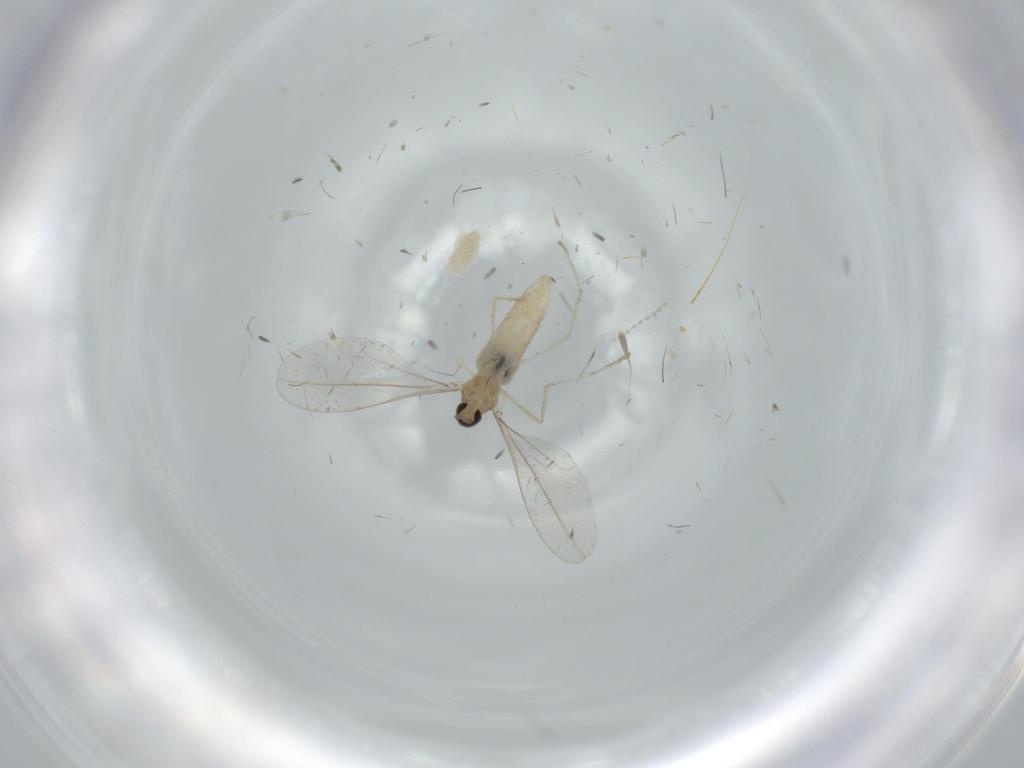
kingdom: Animalia
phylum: Arthropoda
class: Insecta
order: Diptera
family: Cecidomyiidae
